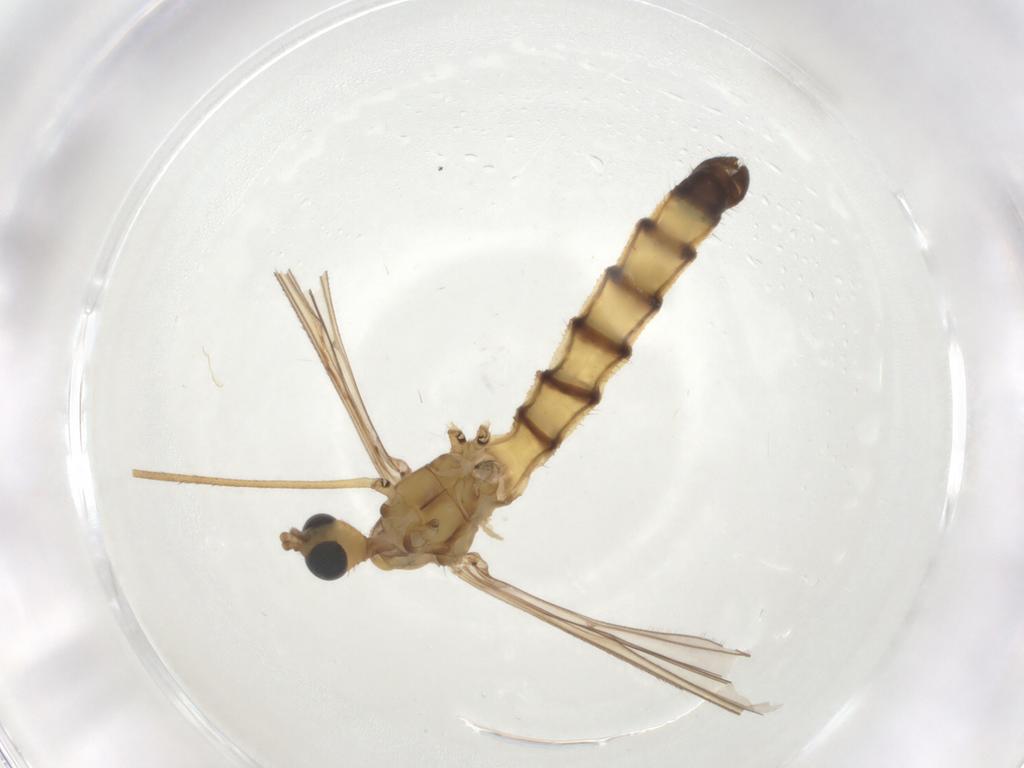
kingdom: Animalia
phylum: Arthropoda
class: Insecta
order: Diptera
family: Limoniidae
